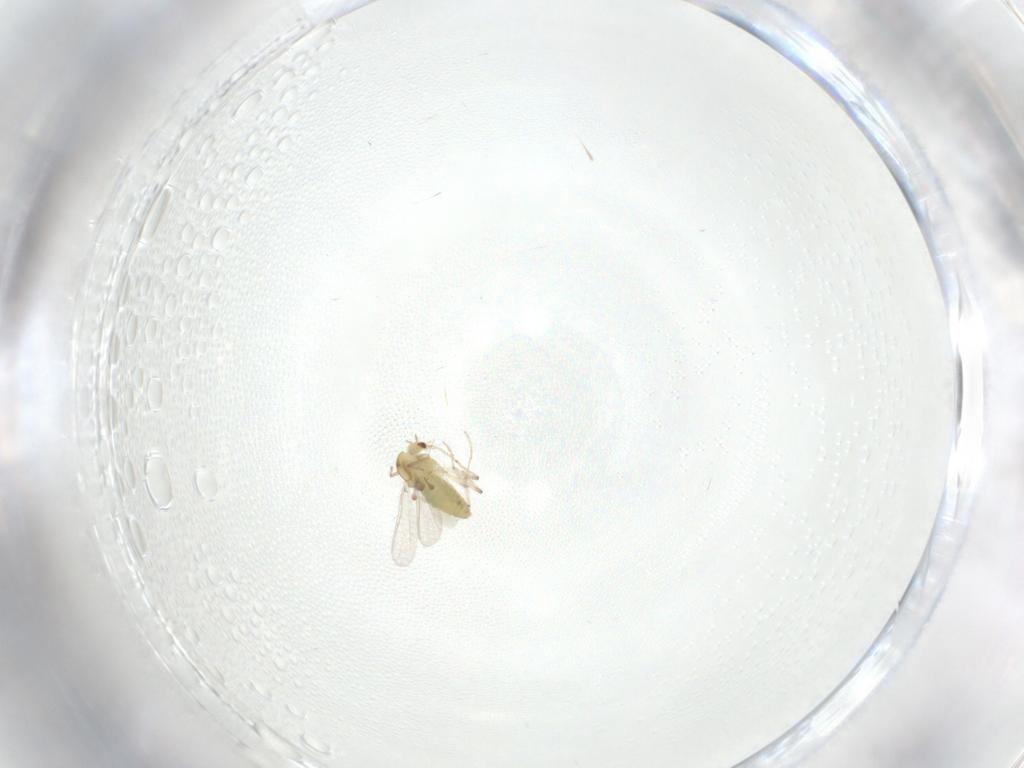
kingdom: Animalia
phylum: Arthropoda
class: Insecta
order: Diptera
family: Chironomidae
